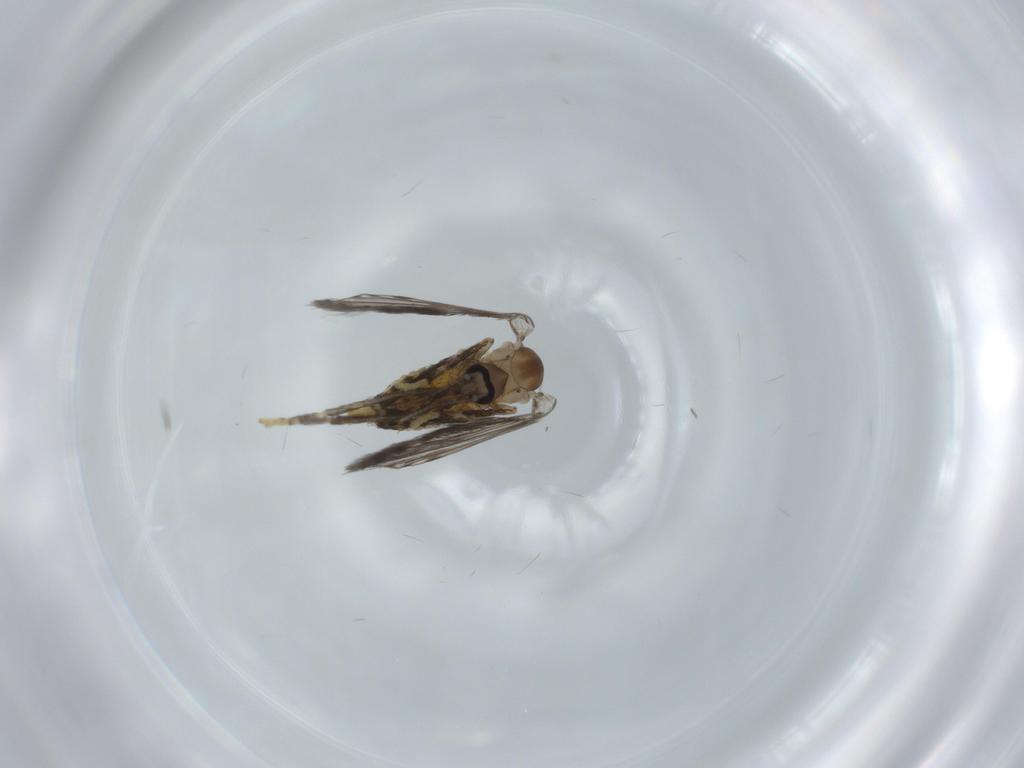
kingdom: Animalia
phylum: Arthropoda
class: Insecta
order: Diptera
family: Psychodidae
